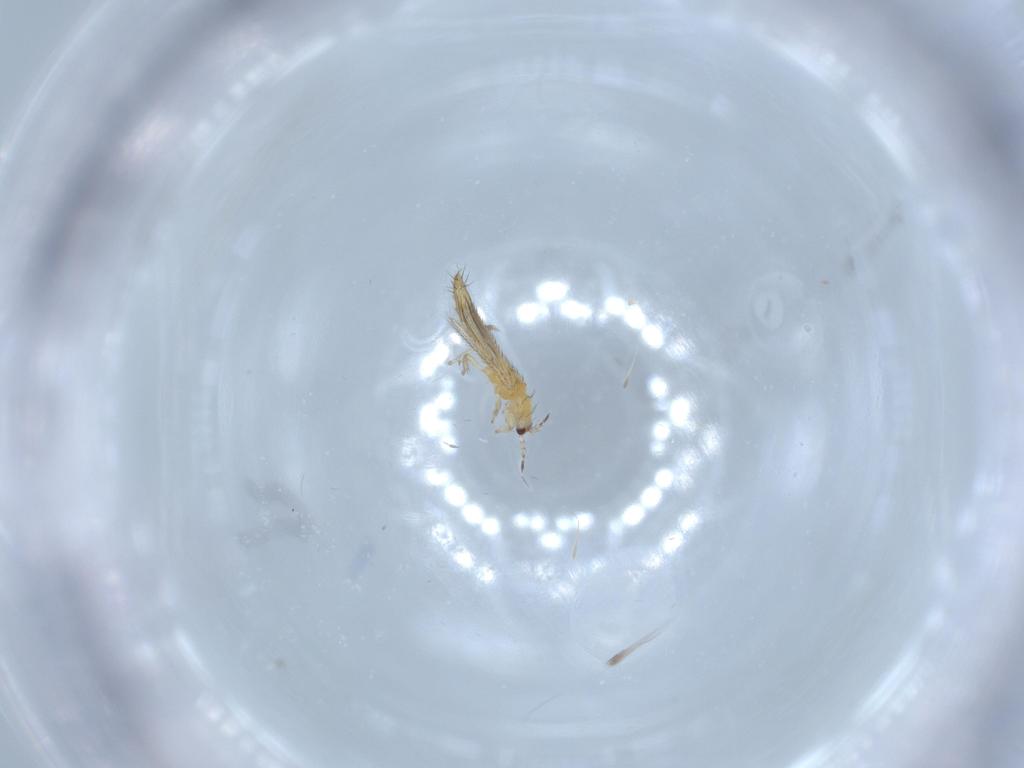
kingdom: Animalia
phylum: Arthropoda
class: Insecta
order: Thysanoptera
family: Thripidae
